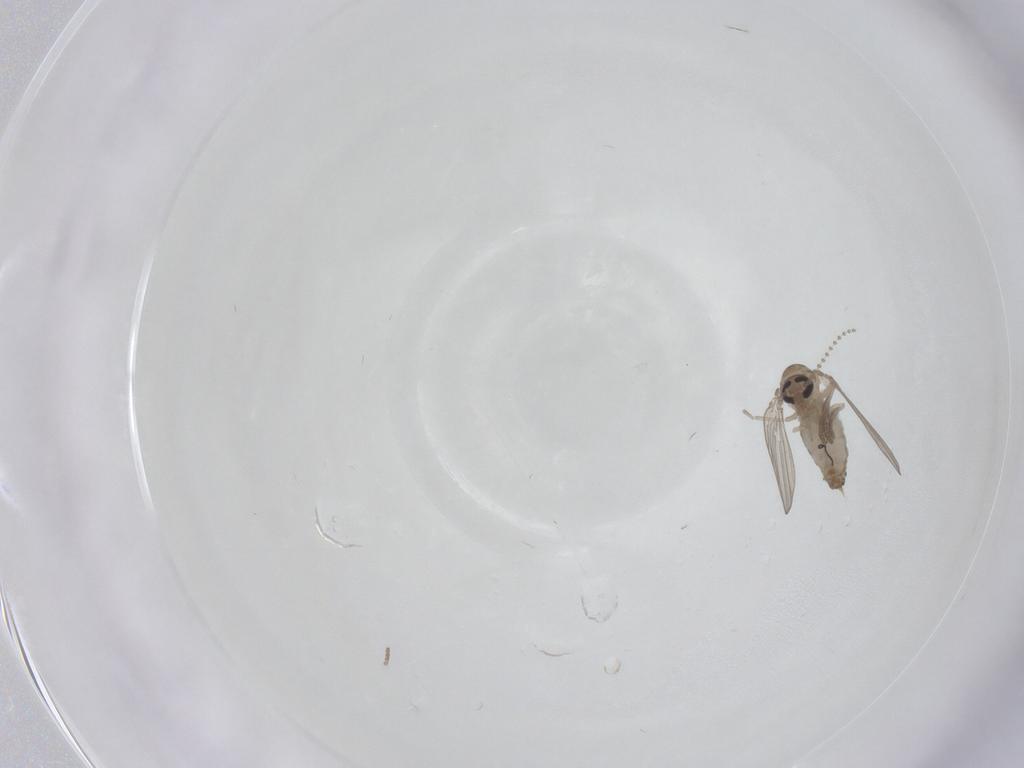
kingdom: Animalia
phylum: Arthropoda
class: Insecta
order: Diptera
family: Psychodidae
